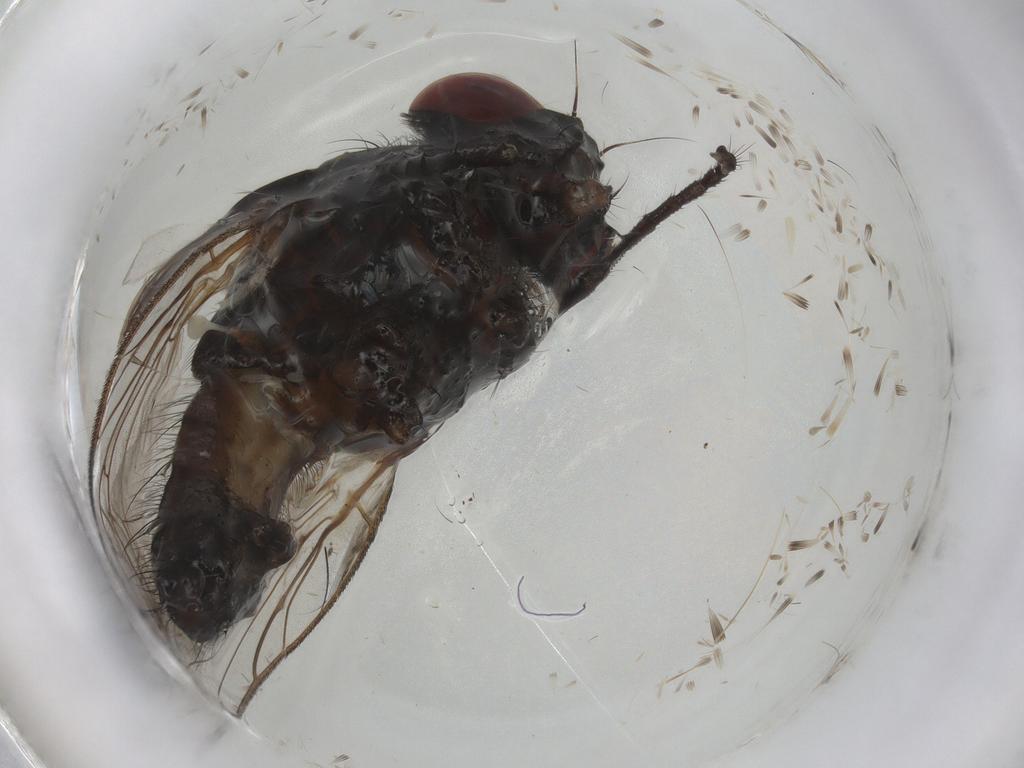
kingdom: Animalia
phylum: Arthropoda
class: Insecta
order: Diptera
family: Anthomyiidae
